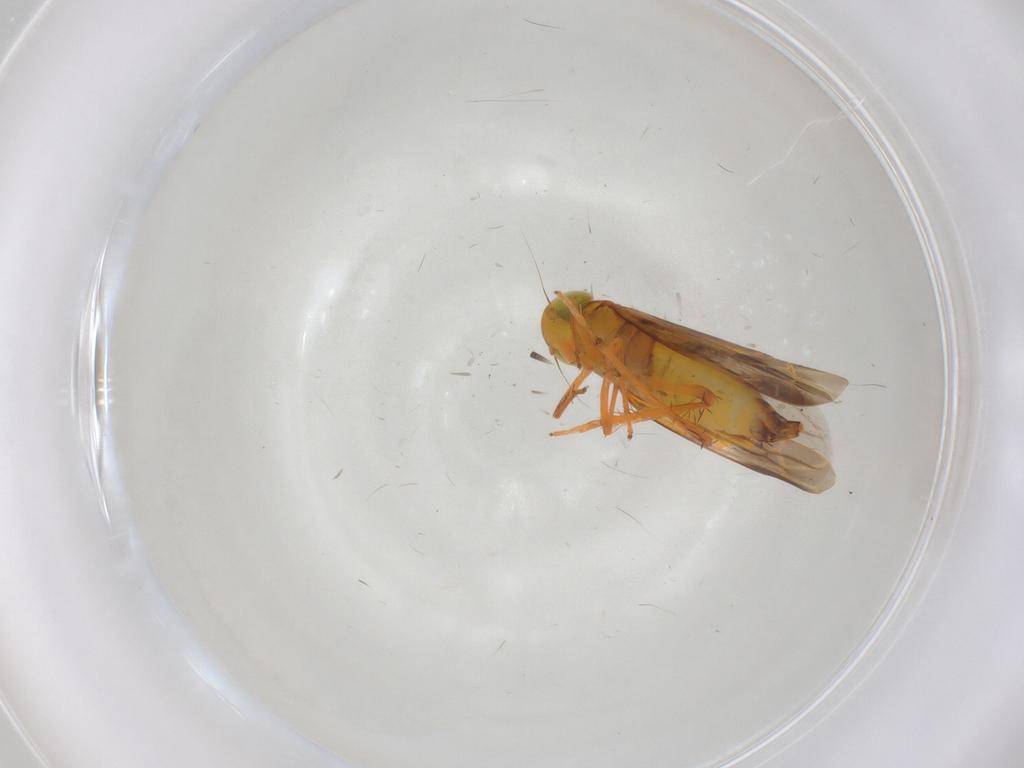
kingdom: Animalia
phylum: Arthropoda
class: Insecta
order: Hemiptera
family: Cicadellidae
